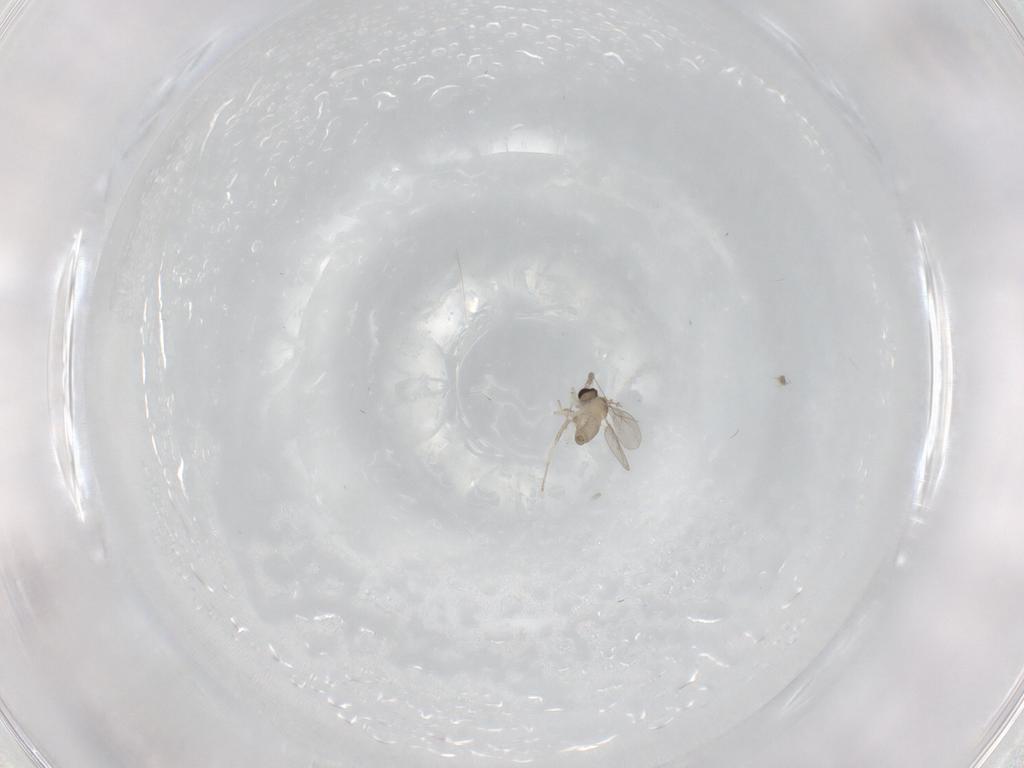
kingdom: Animalia
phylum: Arthropoda
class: Insecta
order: Diptera
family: Cecidomyiidae
